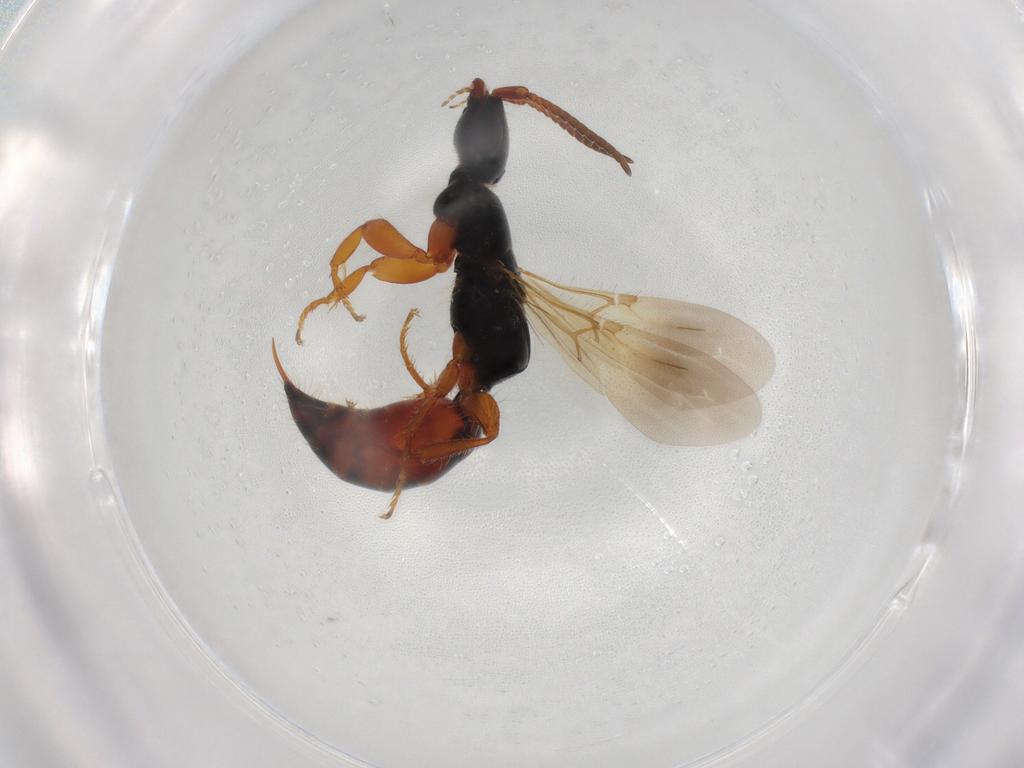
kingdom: Animalia
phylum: Arthropoda
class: Insecta
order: Hymenoptera
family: Bethylidae
